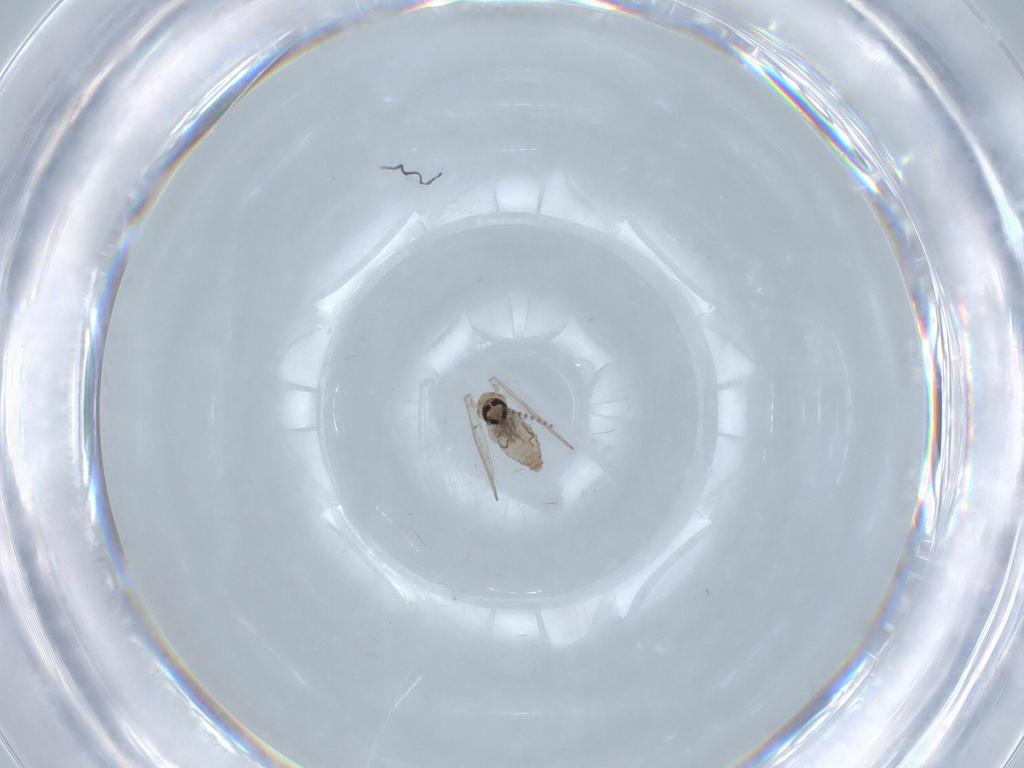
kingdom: Animalia
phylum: Arthropoda
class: Insecta
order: Diptera
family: Psychodidae
